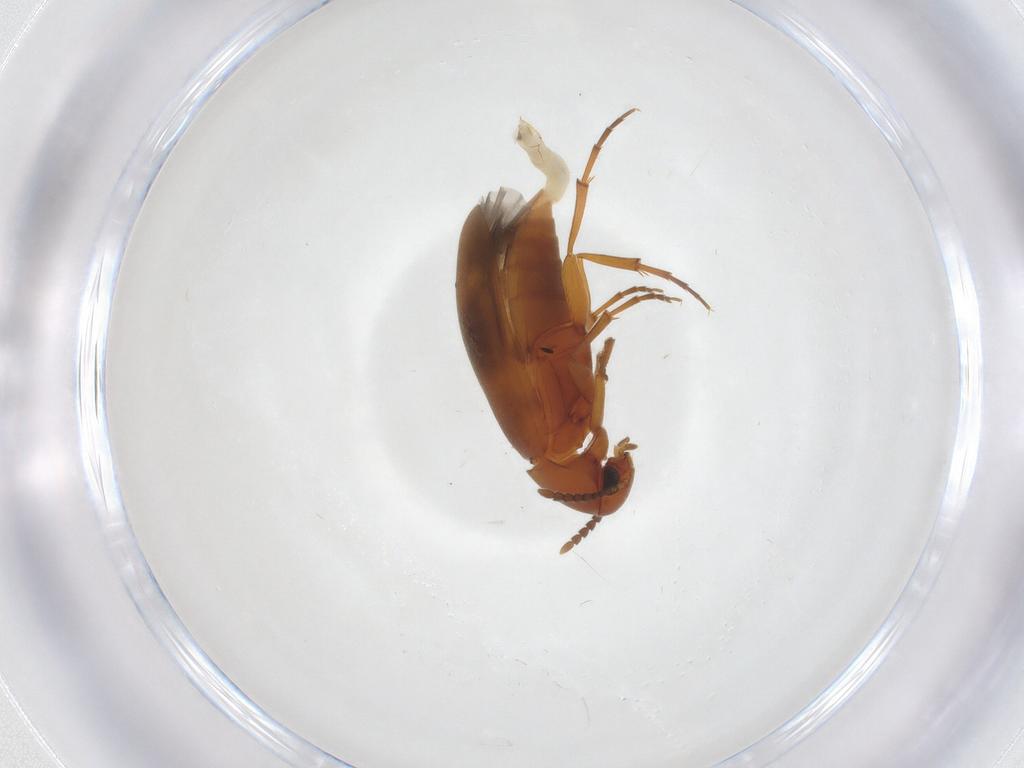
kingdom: Animalia
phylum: Arthropoda
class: Insecta
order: Coleoptera
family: Scraptiidae
